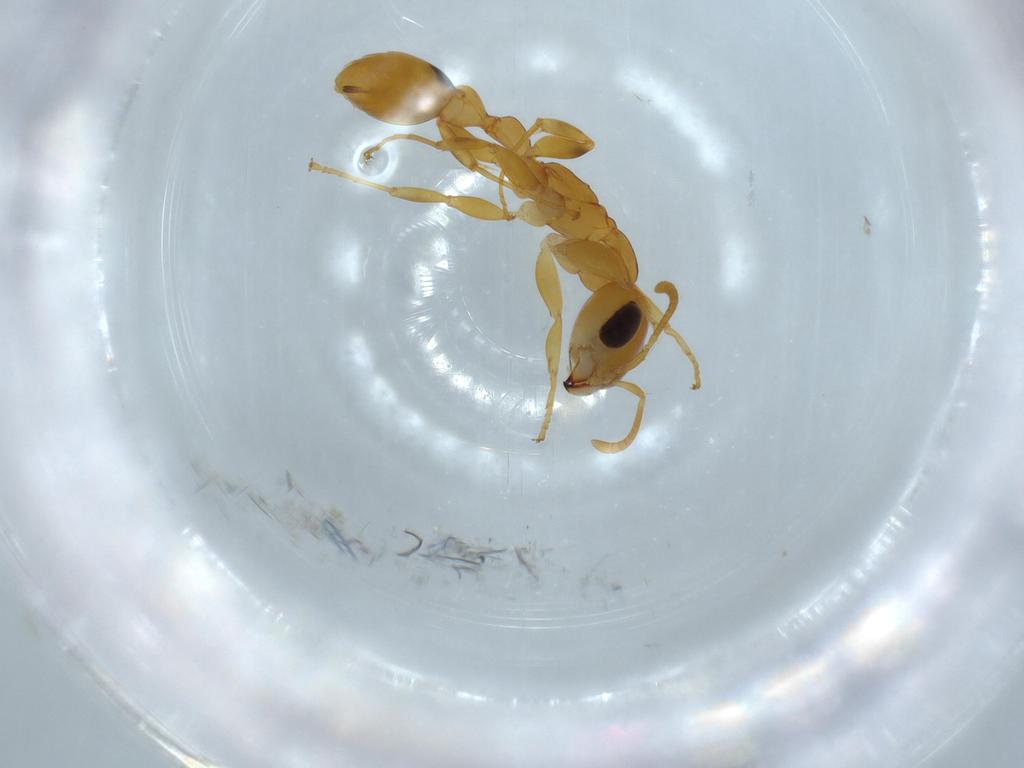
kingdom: Animalia
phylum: Arthropoda
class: Insecta
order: Hymenoptera
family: Formicidae
